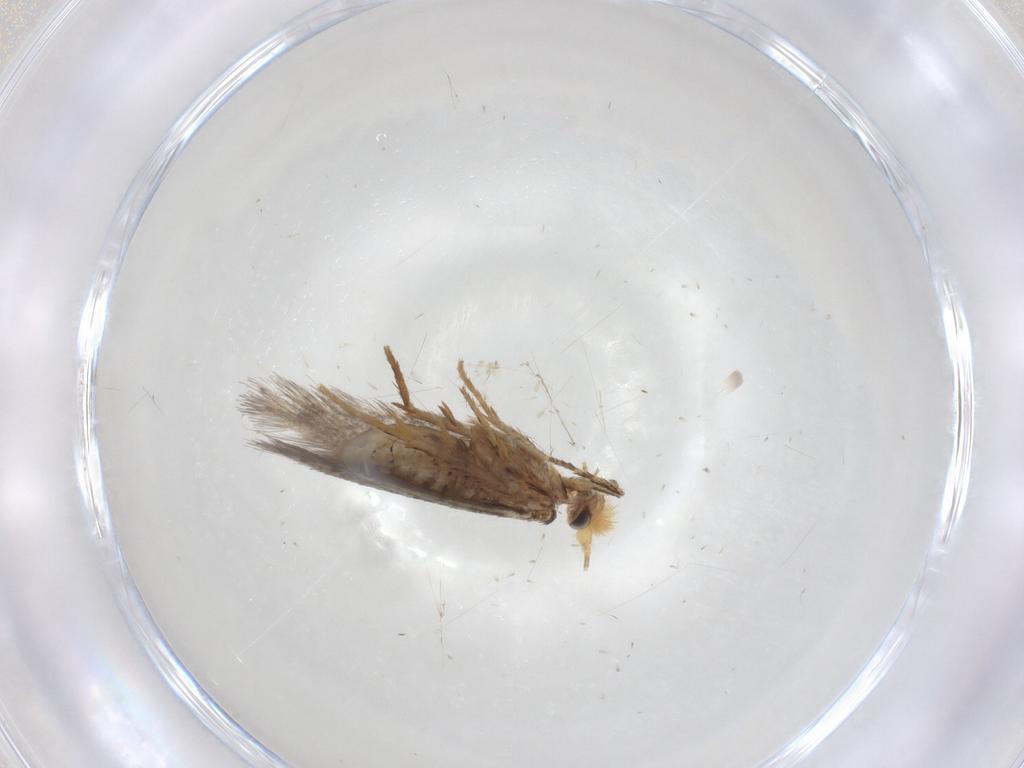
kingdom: Animalia
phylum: Arthropoda
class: Insecta
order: Lepidoptera
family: Nepticulidae
